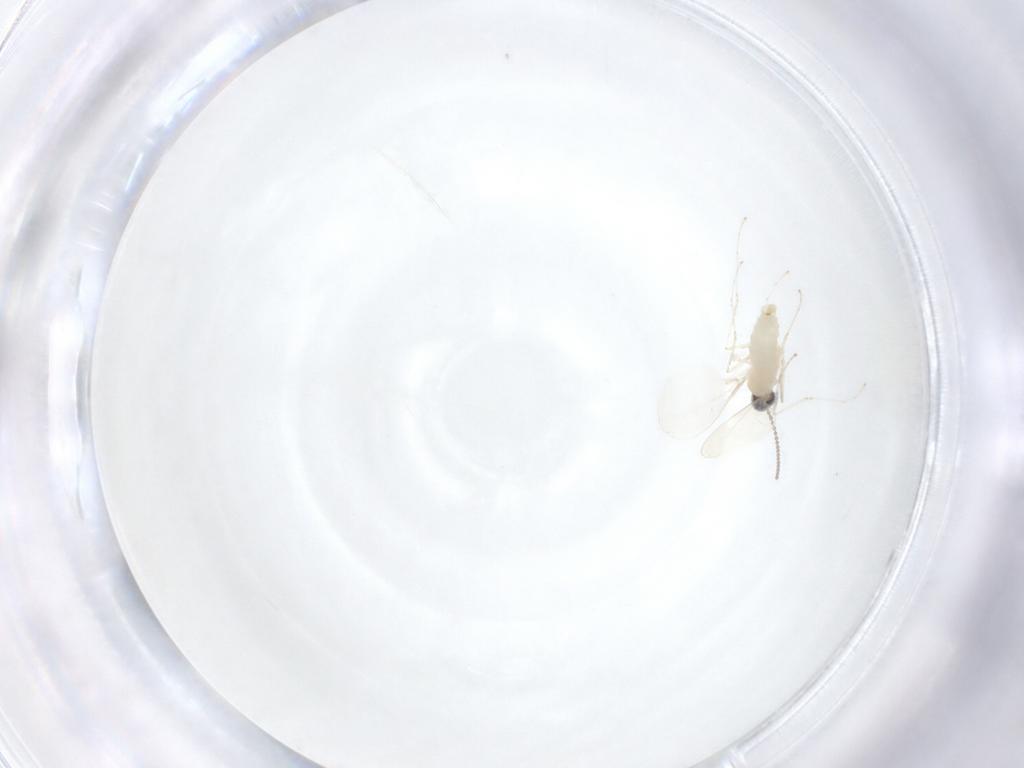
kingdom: Animalia
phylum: Arthropoda
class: Insecta
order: Diptera
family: Cecidomyiidae
